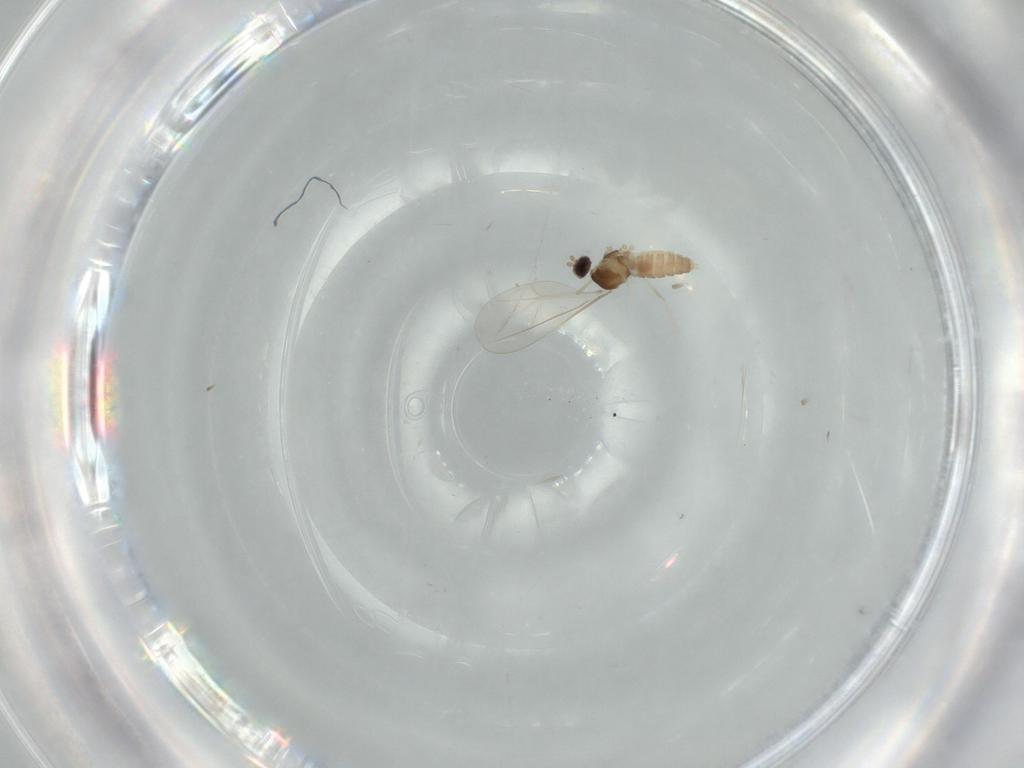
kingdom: Animalia
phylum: Arthropoda
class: Insecta
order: Diptera
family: Cecidomyiidae
